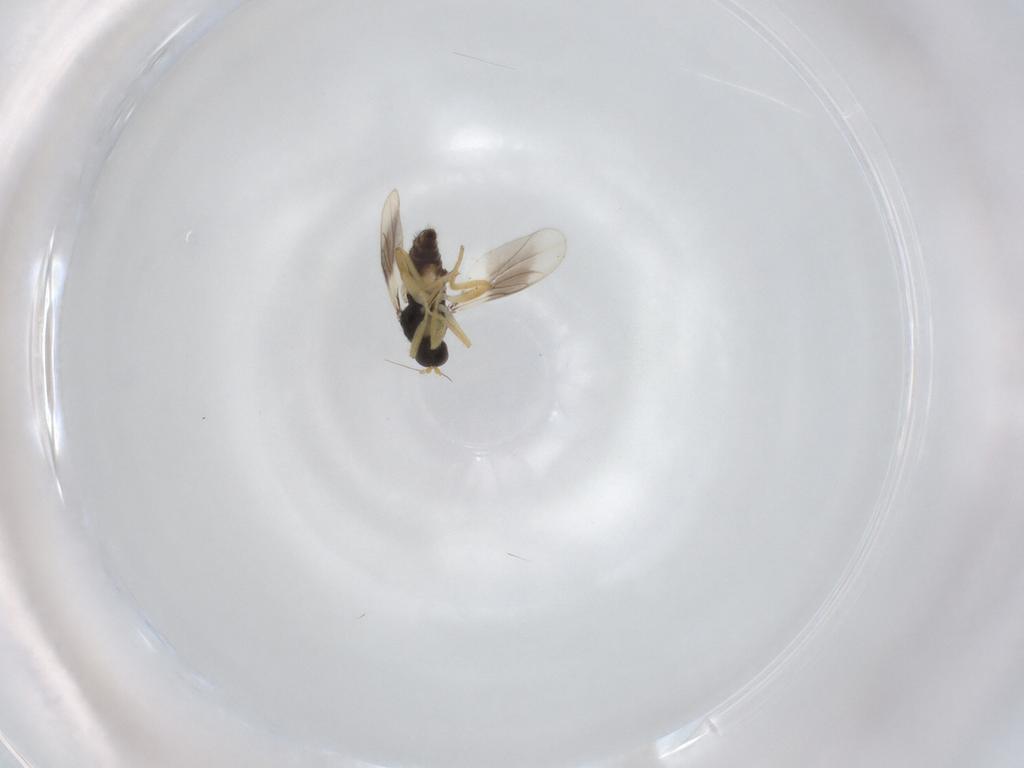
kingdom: Animalia
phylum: Arthropoda
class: Insecta
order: Diptera
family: Hybotidae
